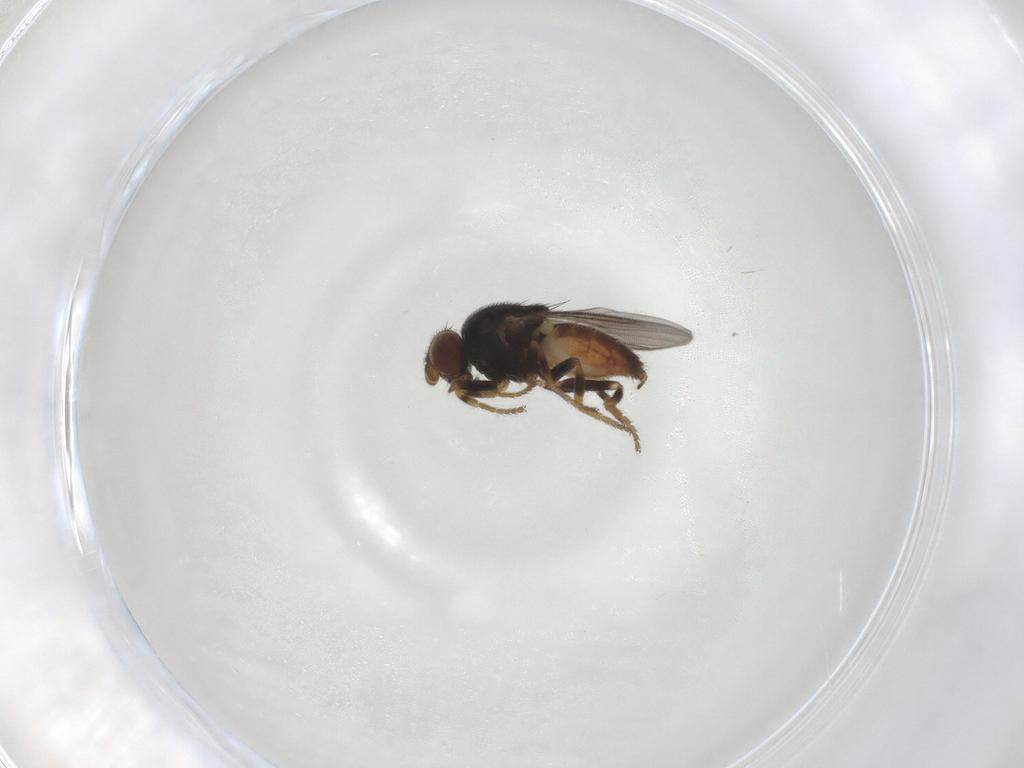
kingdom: Animalia
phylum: Arthropoda
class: Insecta
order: Diptera
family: Chloropidae
